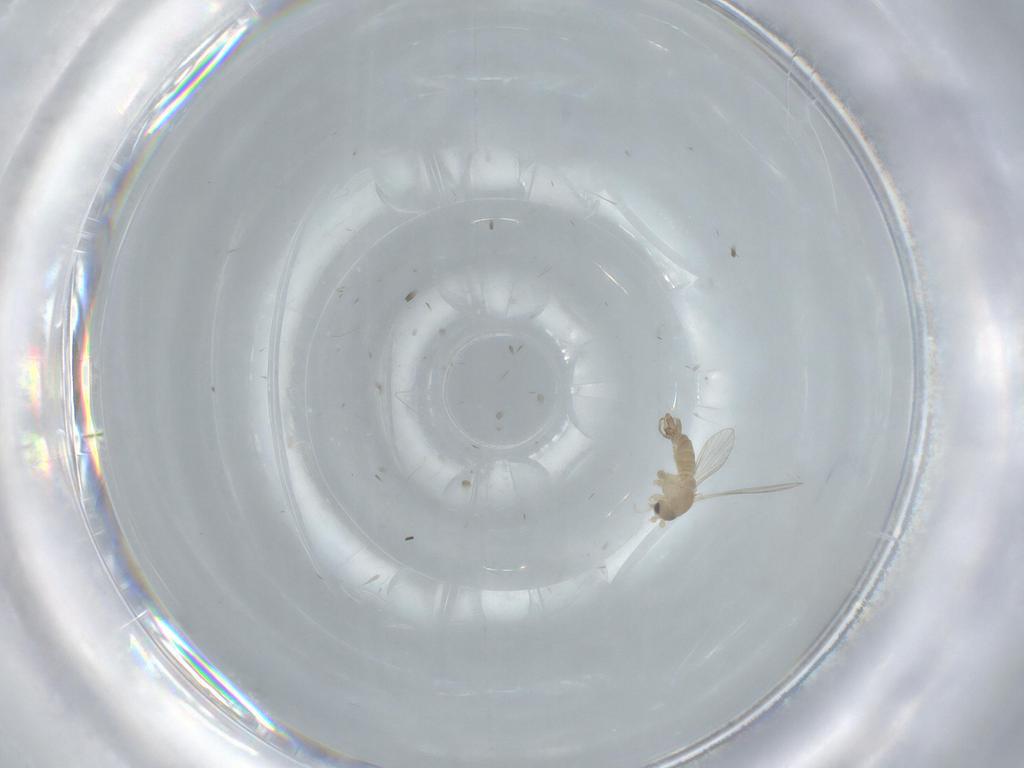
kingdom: Animalia
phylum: Arthropoda
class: Insecta
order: Diptera
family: Psychodidae
